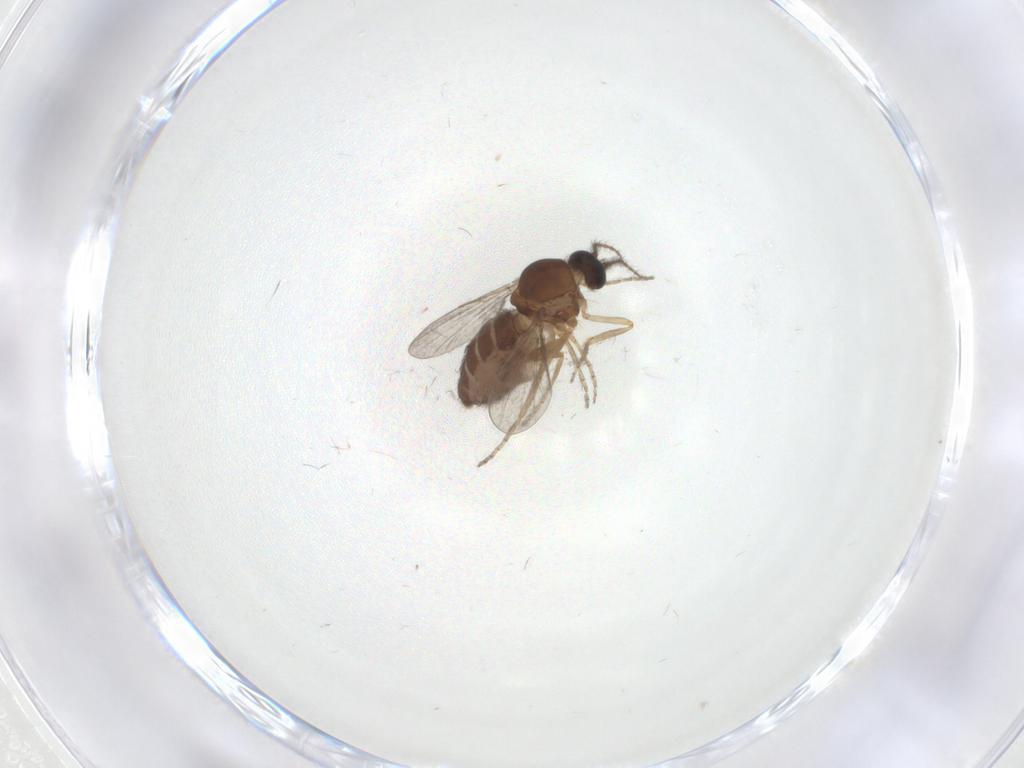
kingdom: Animalia
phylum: Arthropoda
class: Insecta
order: Diptera
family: Ceratopogonidae
